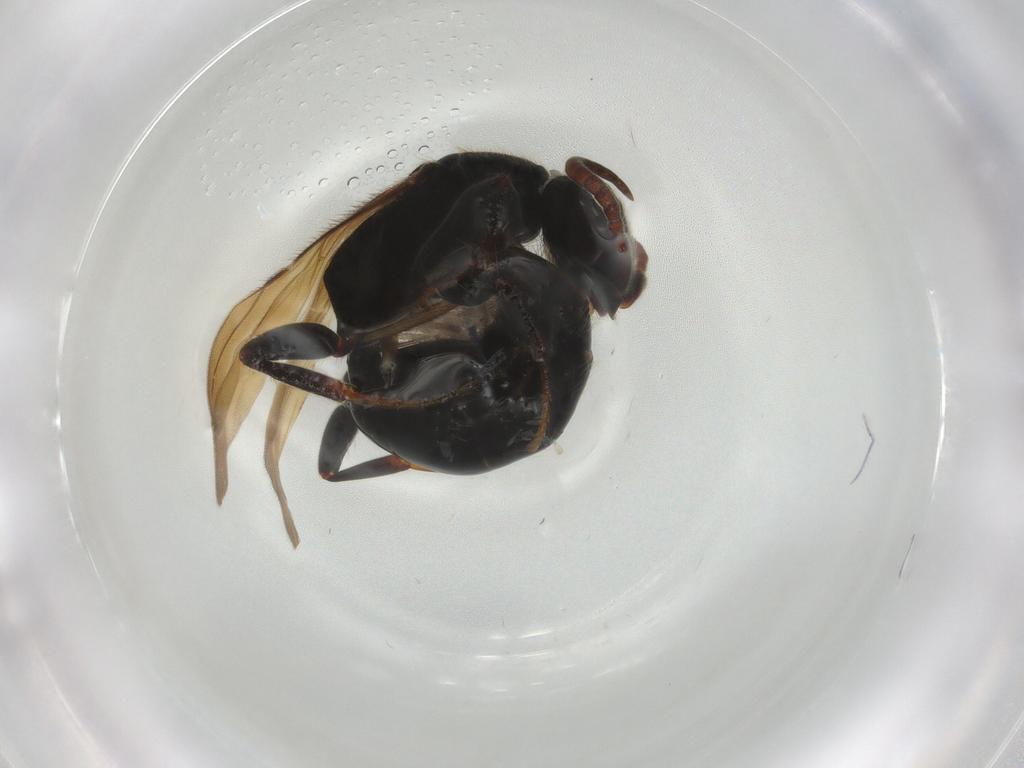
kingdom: Animalia
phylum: Arthropoda
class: Insecta
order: Hymenoptera
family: Bethylidae
